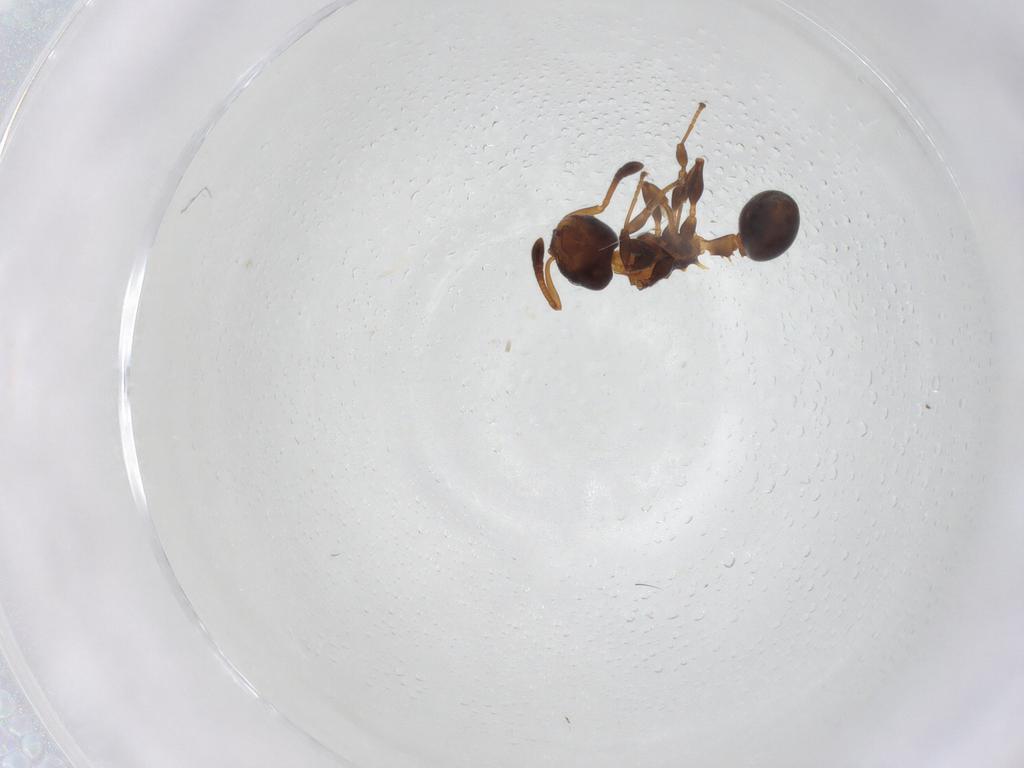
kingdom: Animalia
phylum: Arthropoda
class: Insecta
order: Hymenoptera
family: Formicidae
